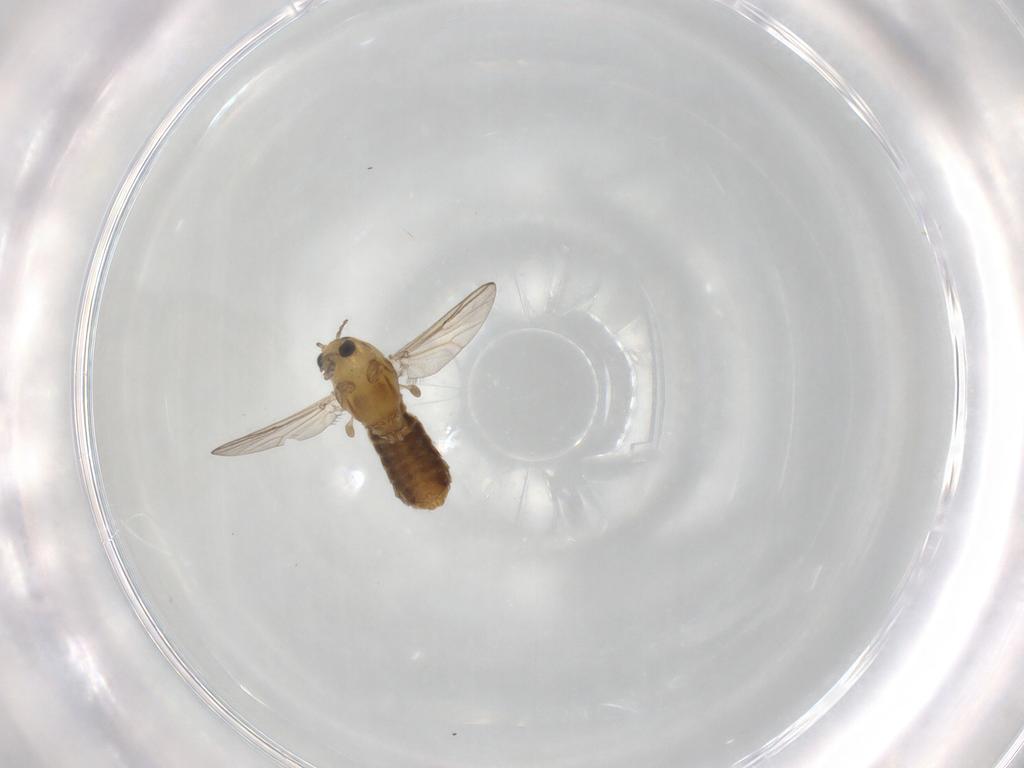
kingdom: Animalia
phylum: Arthropoda
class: Insecta
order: Diptera
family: Chironomidae
